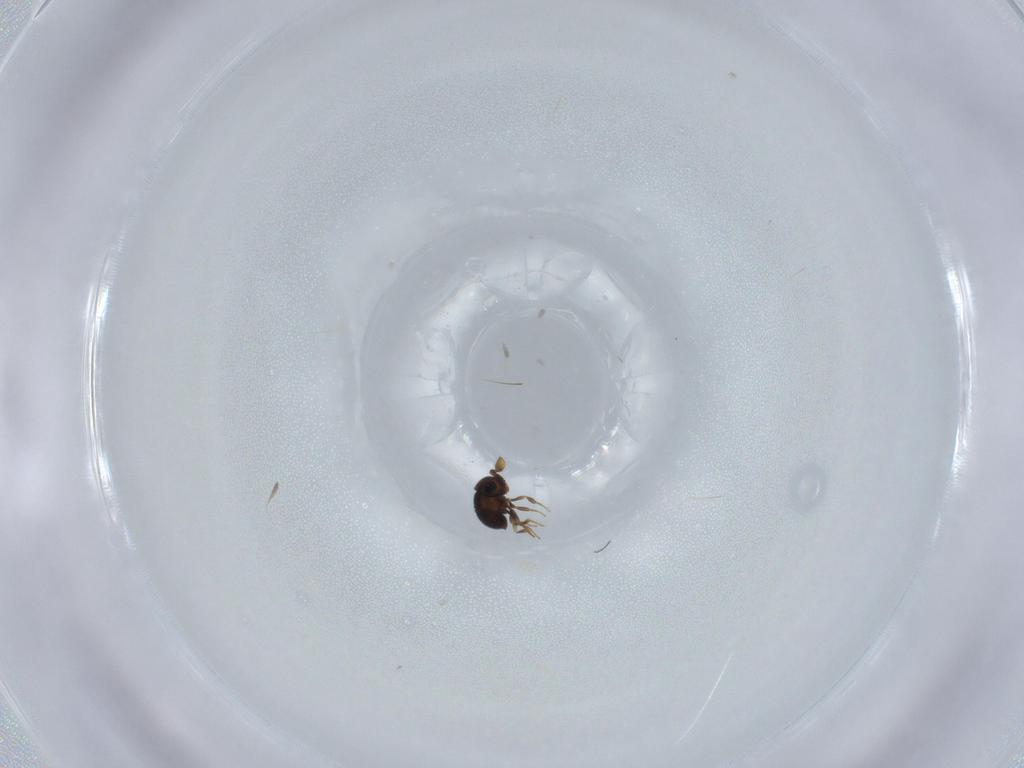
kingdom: Animalia
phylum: Arthropoda
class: Insecta
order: Hymenoptera
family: Scelionidae
